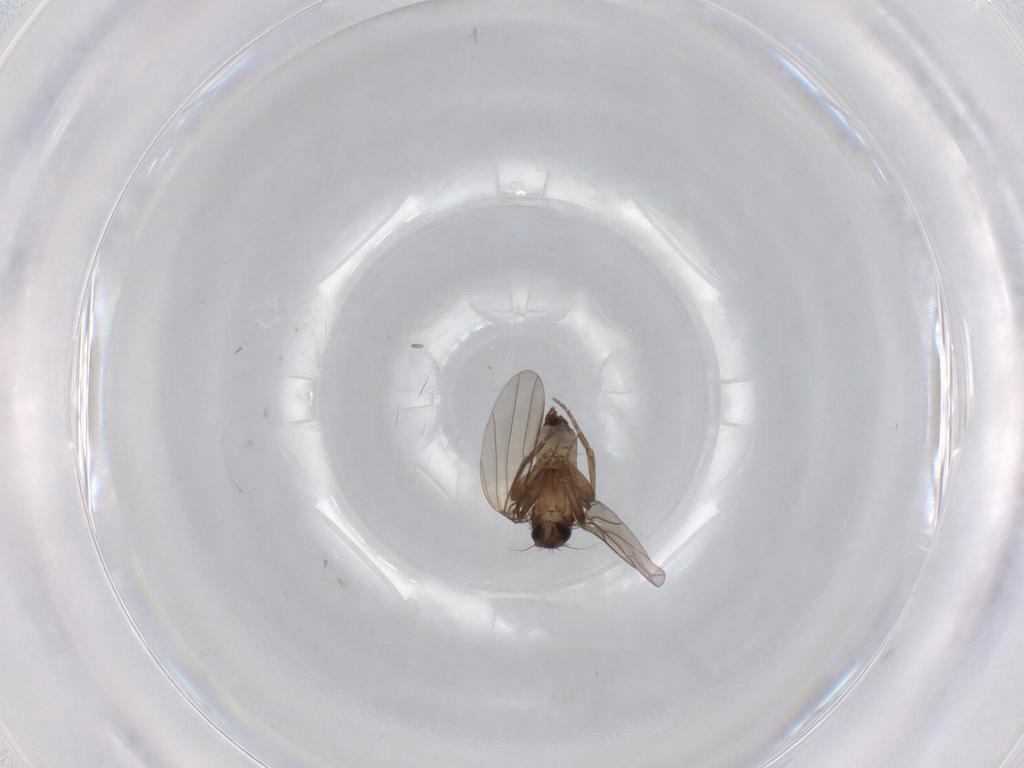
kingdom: Animalia
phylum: Arthropoda
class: Insecta
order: Diptera
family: Phoridae
